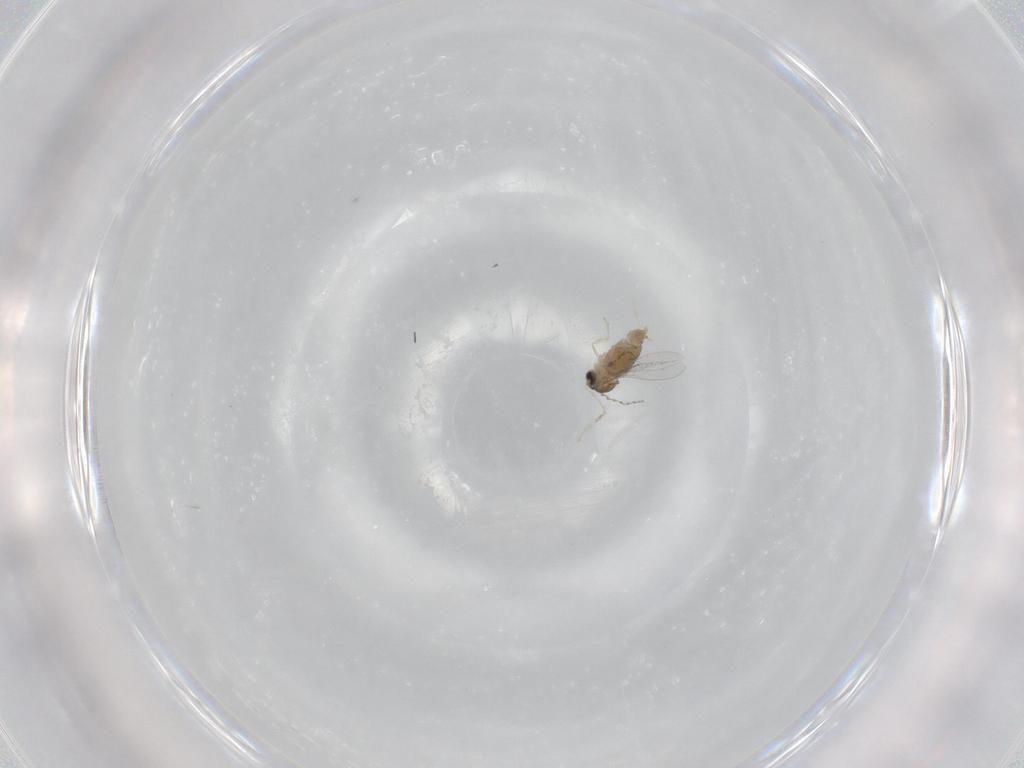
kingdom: Animalia
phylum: Arthropoda
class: Insecta
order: Diptera
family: Cecidomyiidae
